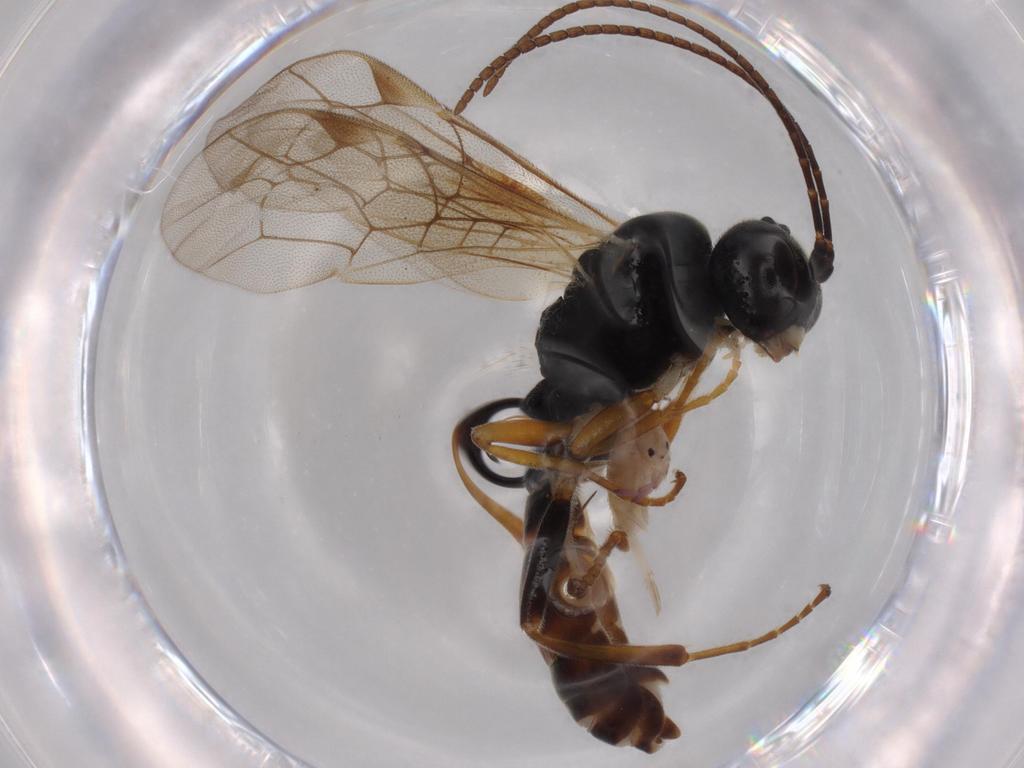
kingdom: Animalia
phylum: Arthropoda
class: Insecta
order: Hymenoptera
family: Ichneumonidae
